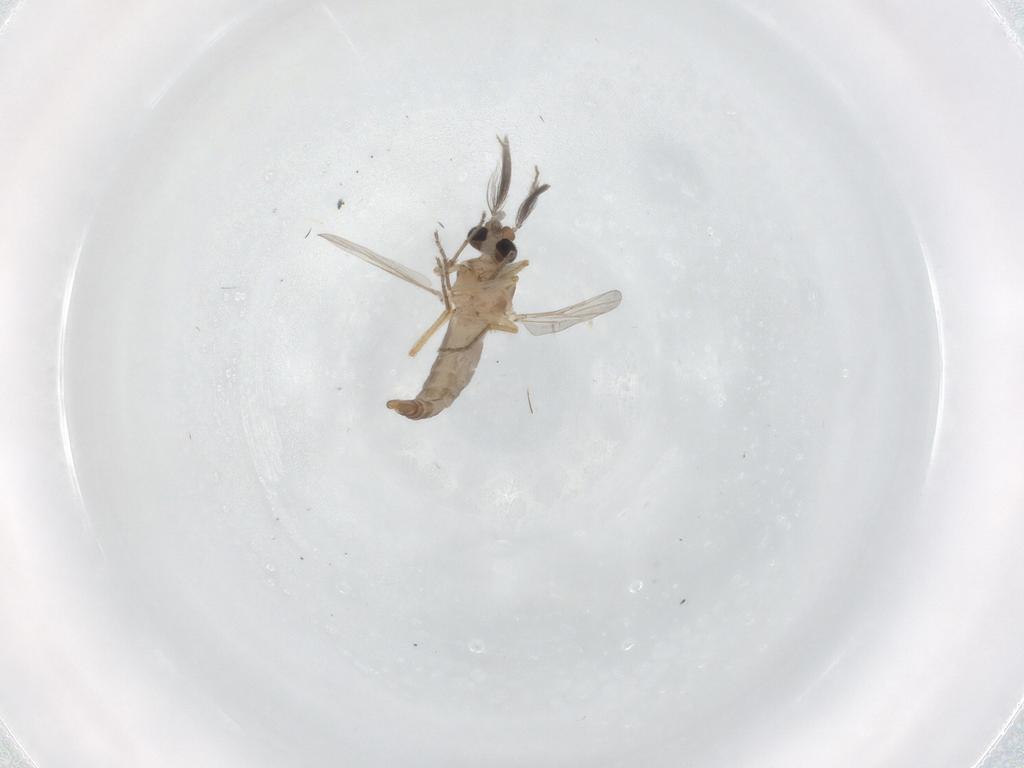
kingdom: Animalia
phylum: Arthropoda
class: Insecta
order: Diptera
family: Ceratopogonidae
